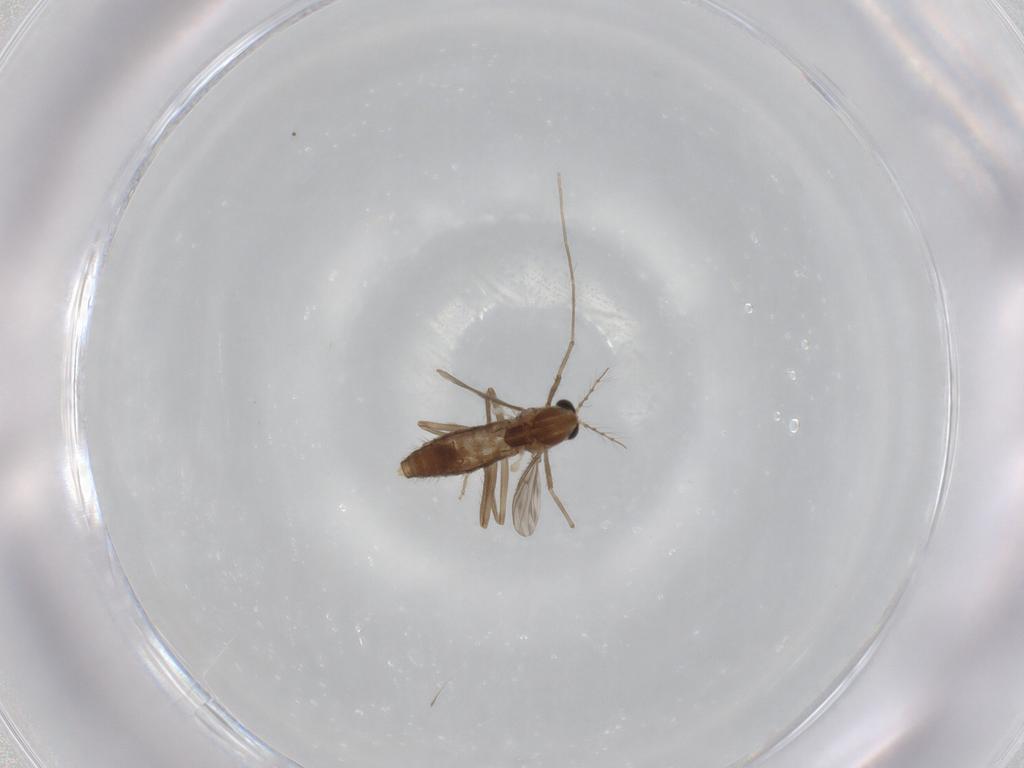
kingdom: Animalia
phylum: Arthropoda
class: Insecta
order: Diptera
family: Chironomidae
